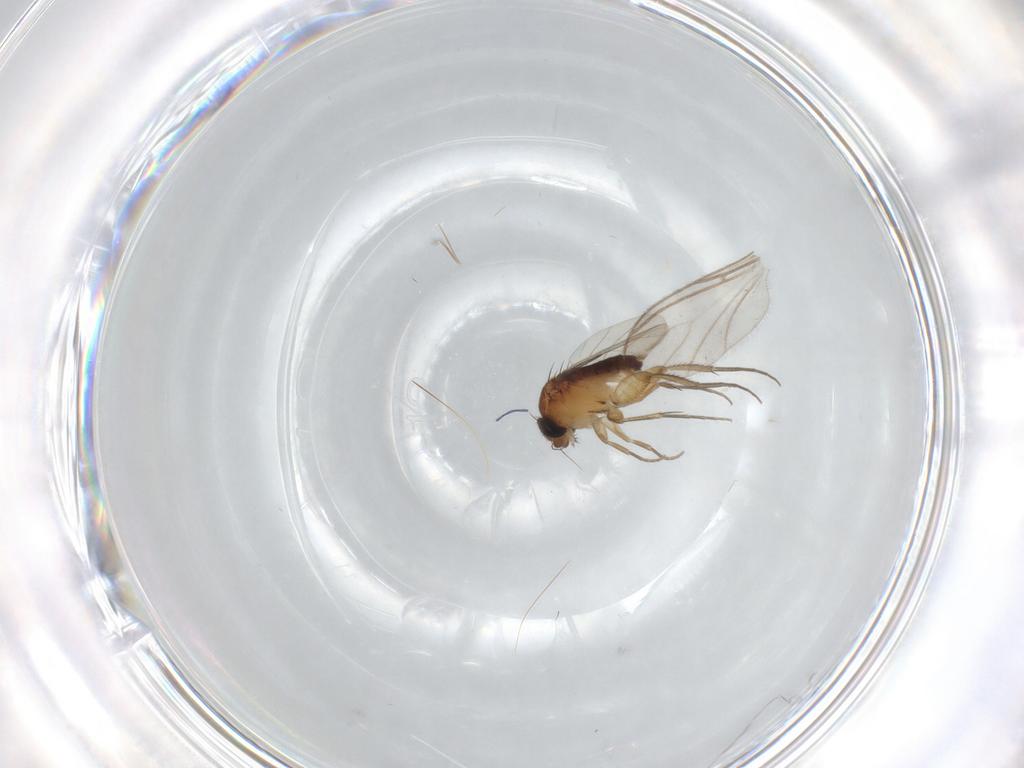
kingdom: Animalia
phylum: Arthropoda
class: Insecta
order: Diptera
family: Phoridae
